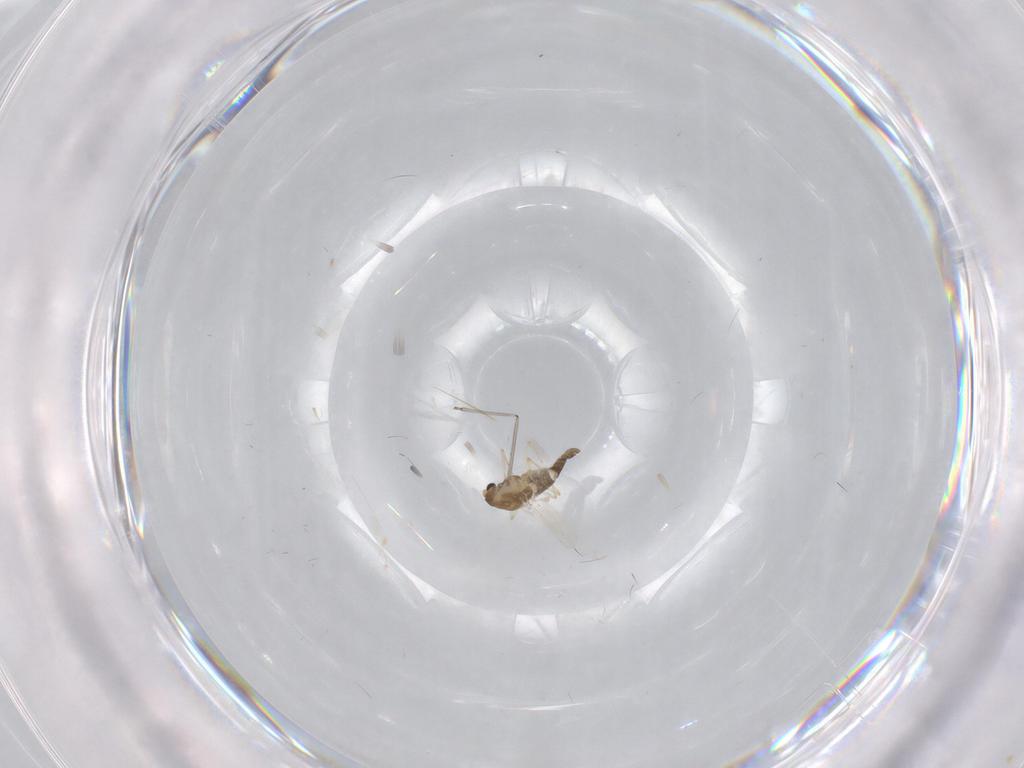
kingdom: Animalia
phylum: Arthropoda
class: Insecta
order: Diptera
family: Chironomidae
